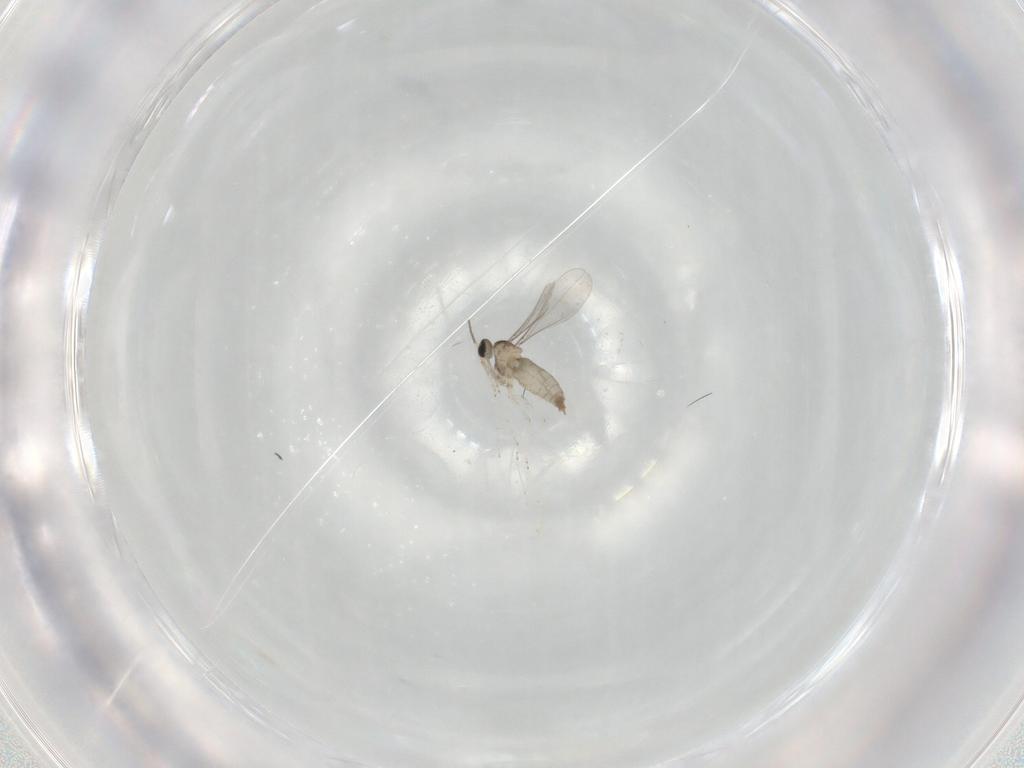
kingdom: Animalia
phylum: Arthropoda
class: Insecta
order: Diptera
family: Cecidomyiidae
